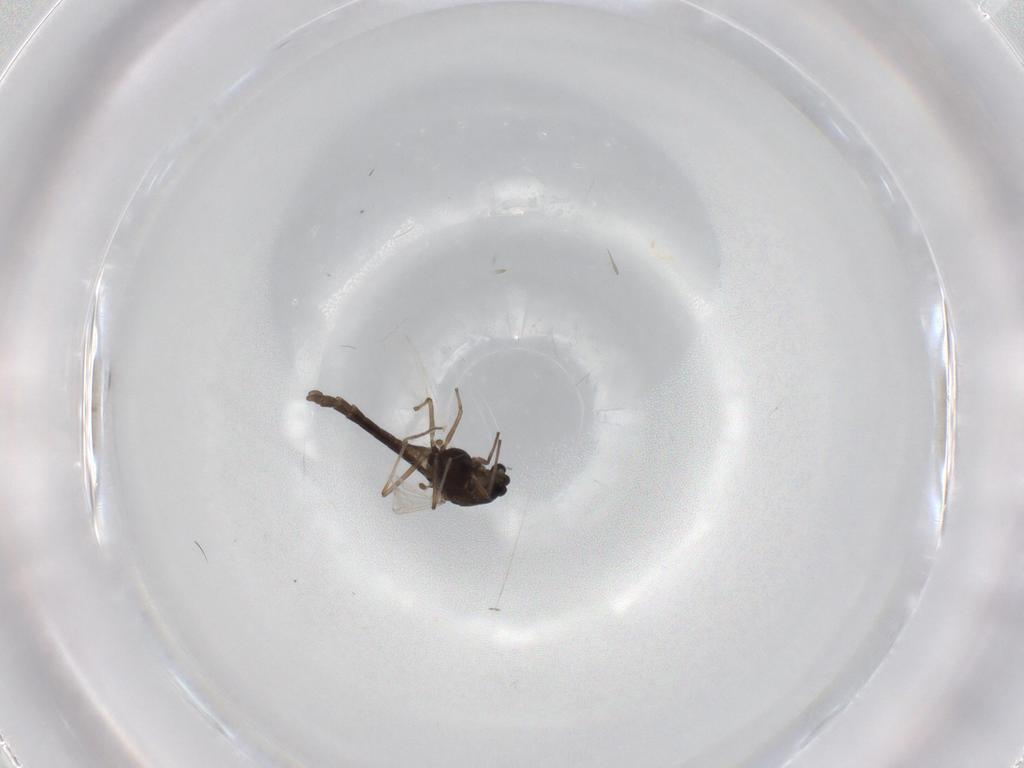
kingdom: Animalia
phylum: Arthropoda
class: Insecta
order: Diptera
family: Chironomidae
